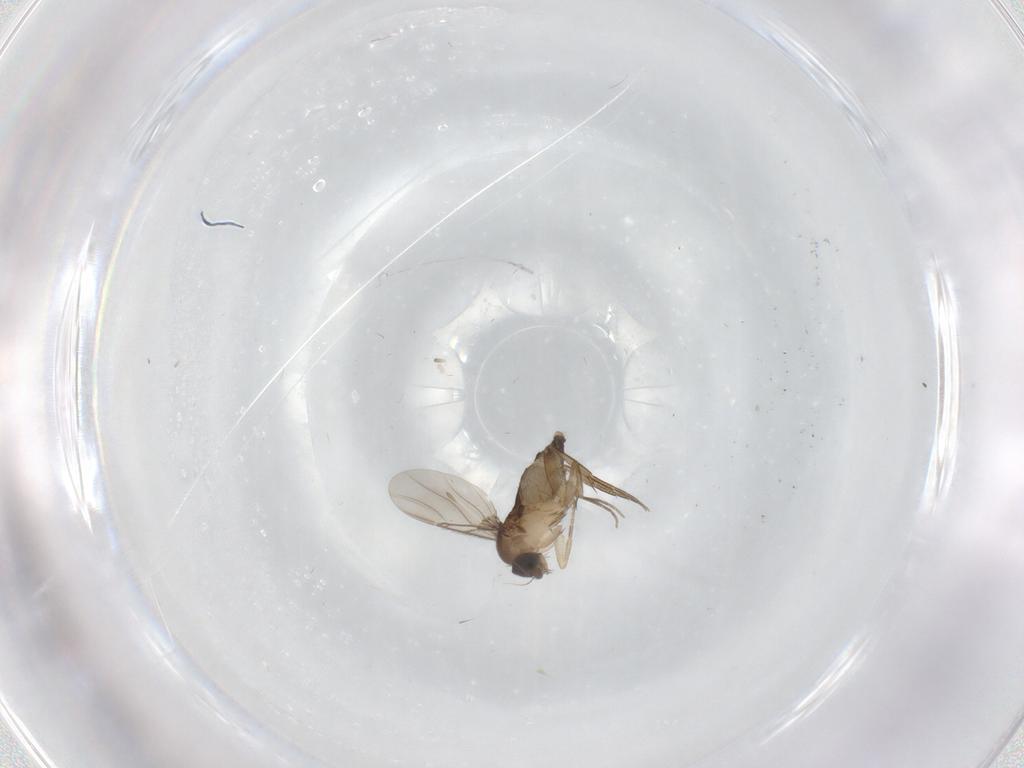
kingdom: Animalia
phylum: Arthropoda
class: Insecta
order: Diptera
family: Phoridae
